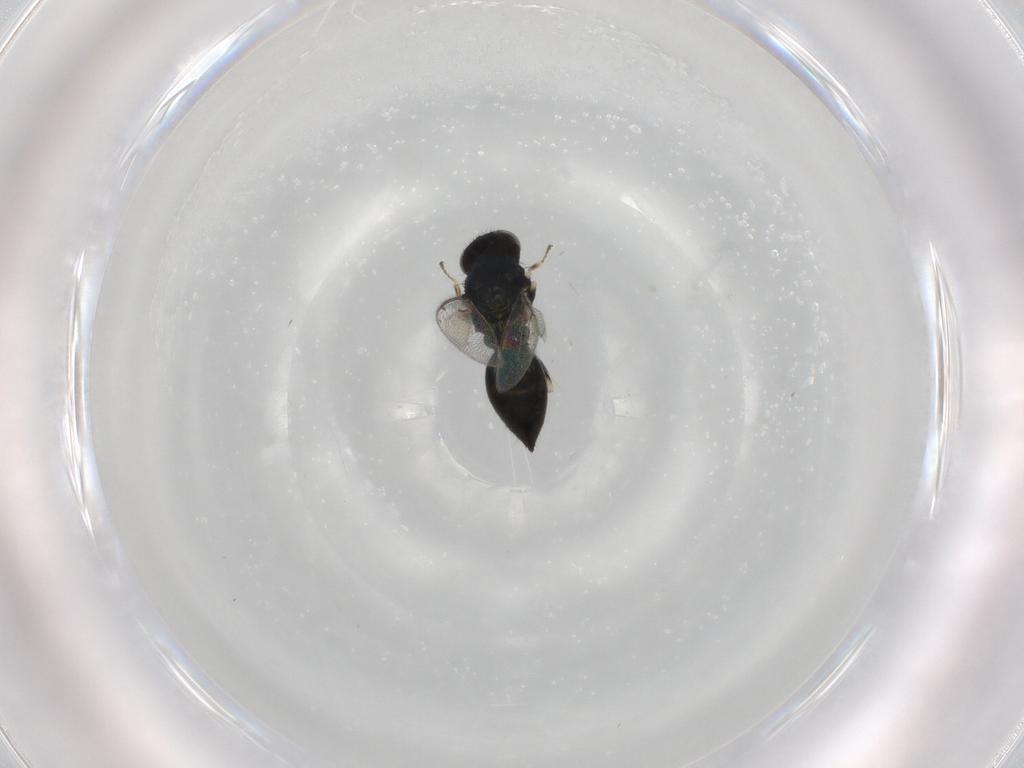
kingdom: Animalia
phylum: Arthropoda
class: Insecta
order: Hymenoptera
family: Eulophidae
